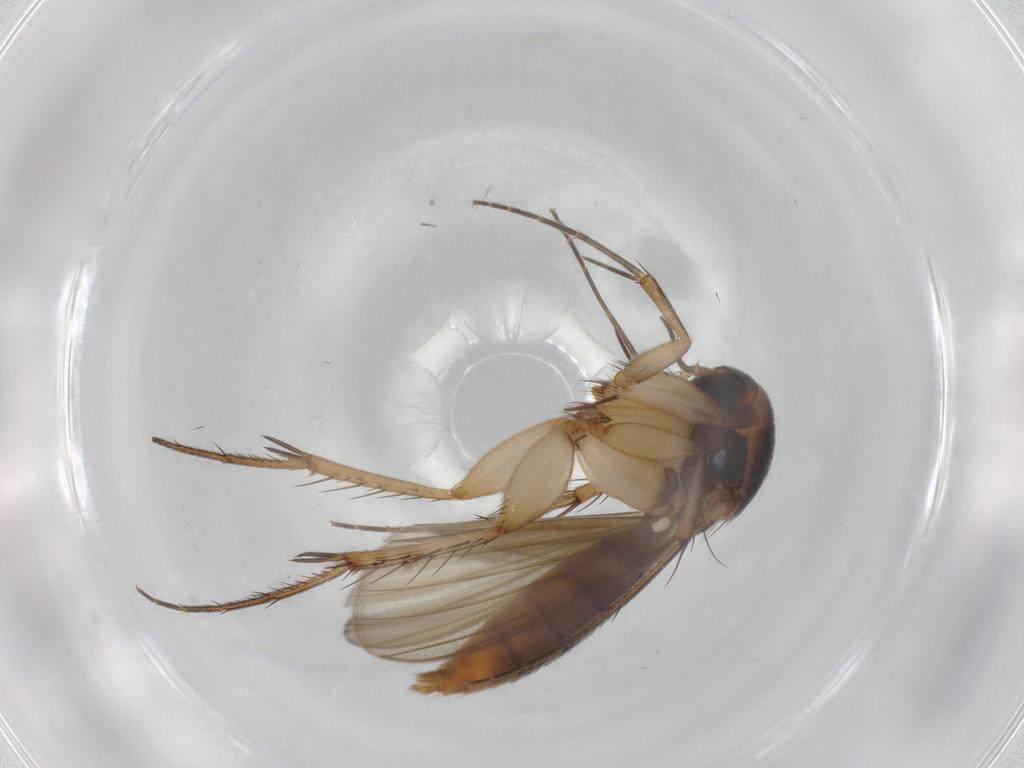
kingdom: Animalia
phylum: Arthropoda
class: Insecta
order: Diptera
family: Mycetophilidae
